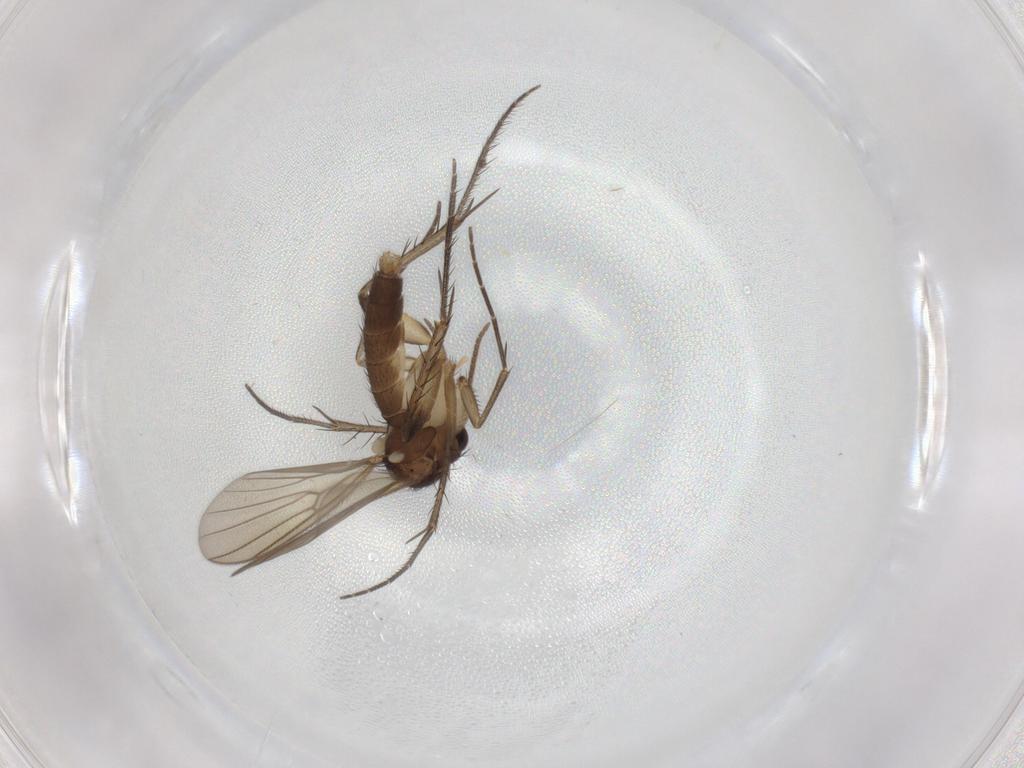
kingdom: Animalia
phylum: Arthropoda
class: Insecta
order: Diptera
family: Mycetophilidae
